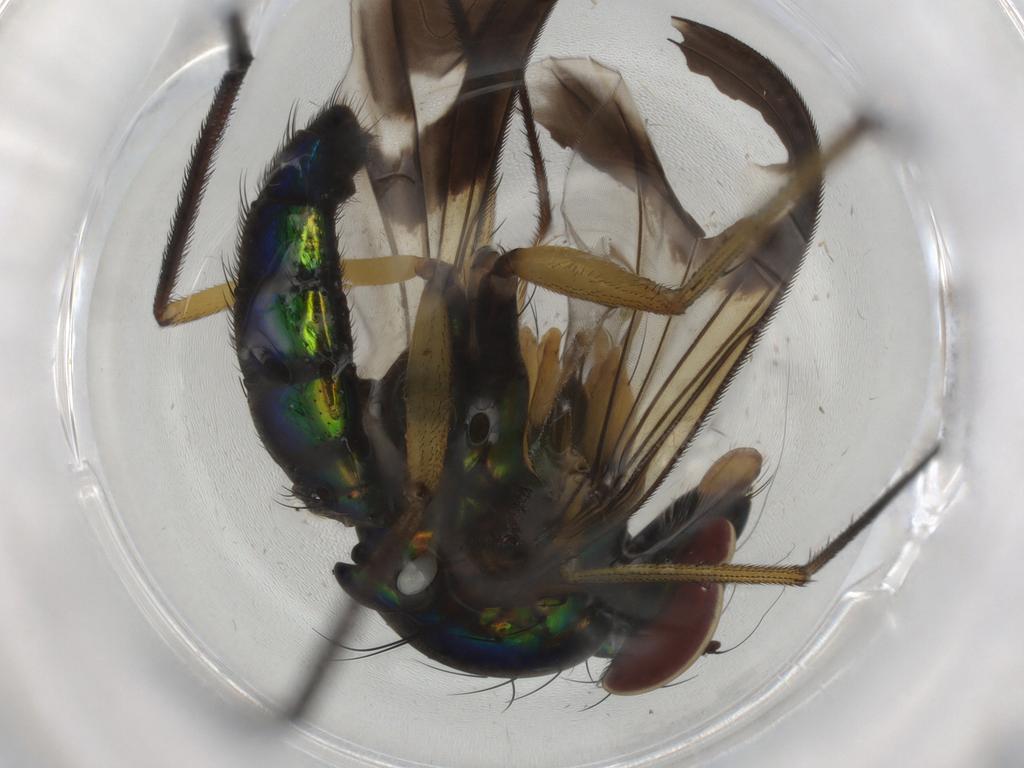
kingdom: Animalia
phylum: Arthropoda
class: Insecta
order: Diptera
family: Dolichopodidae
